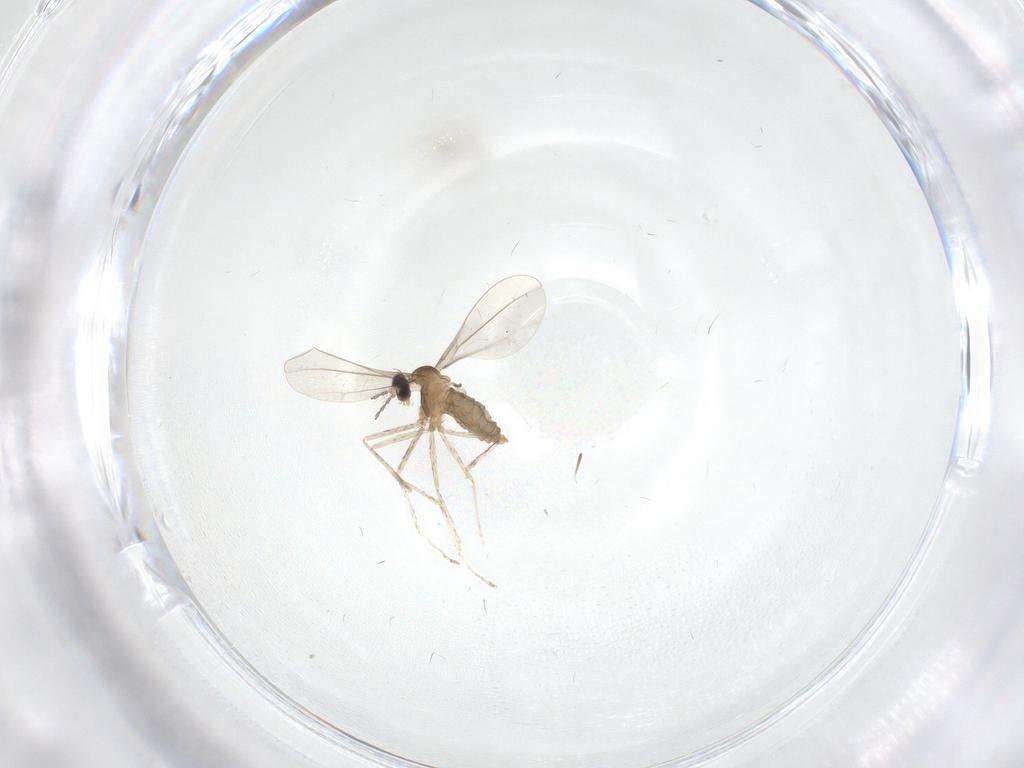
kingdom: Animalia
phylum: Arthropoda
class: Insecta
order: Diptera
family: Cecidomyiidae
